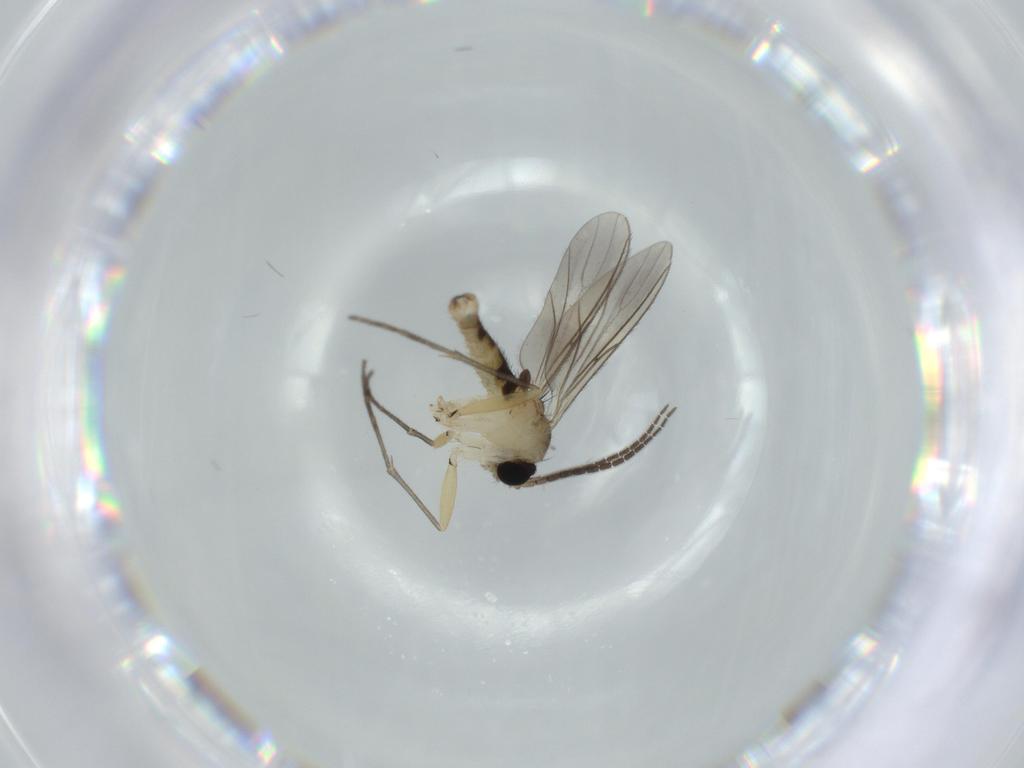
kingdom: Animalia
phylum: Arthropoda
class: Insecta
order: Diptera
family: Sciaridae
